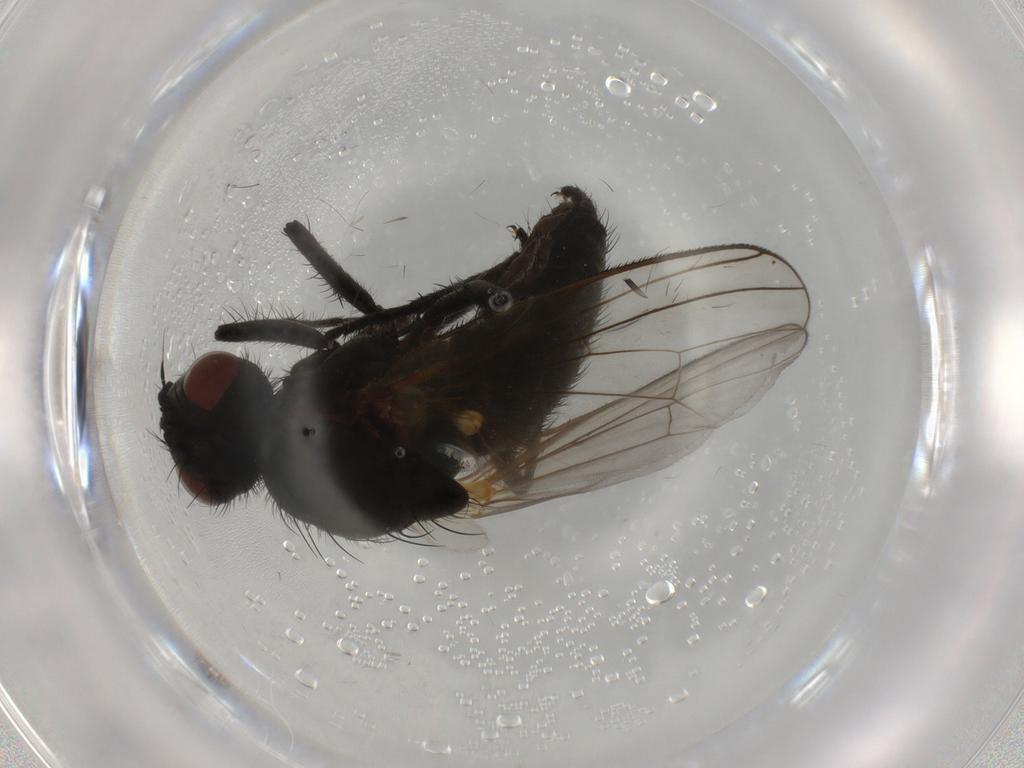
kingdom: Animalia
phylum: Arthropoda
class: Insecta
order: Diptera
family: Anthomyiidae
